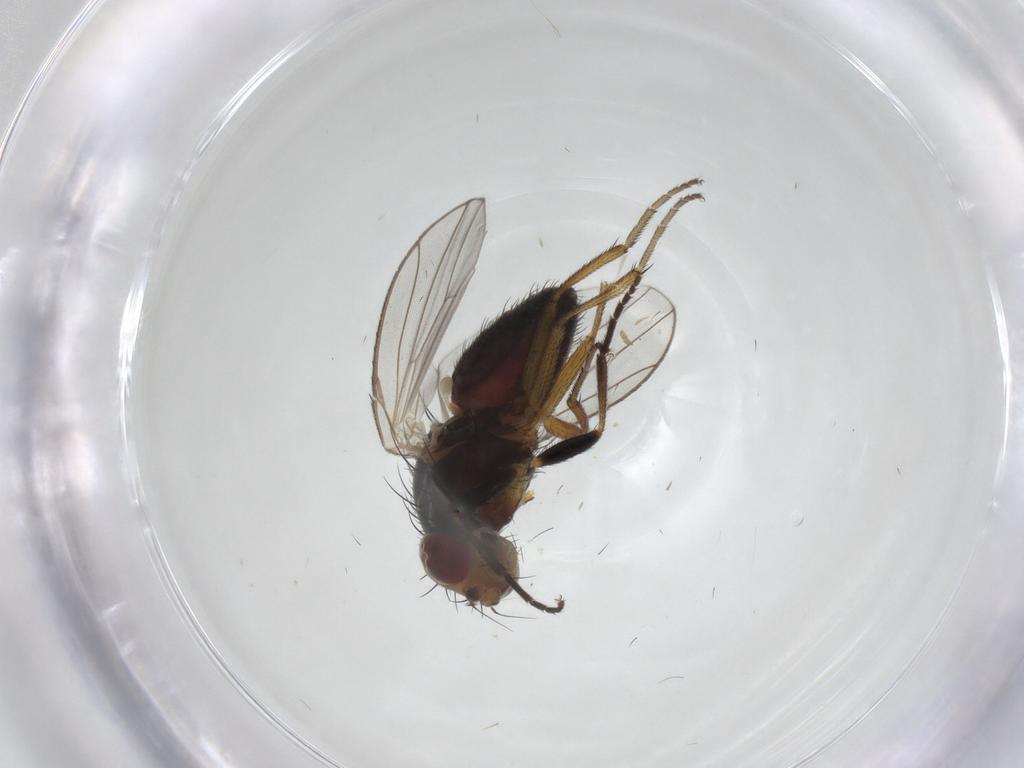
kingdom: Animalia
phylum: Arthropoda
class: Insecta
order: Diptera
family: Heleomyzidae
